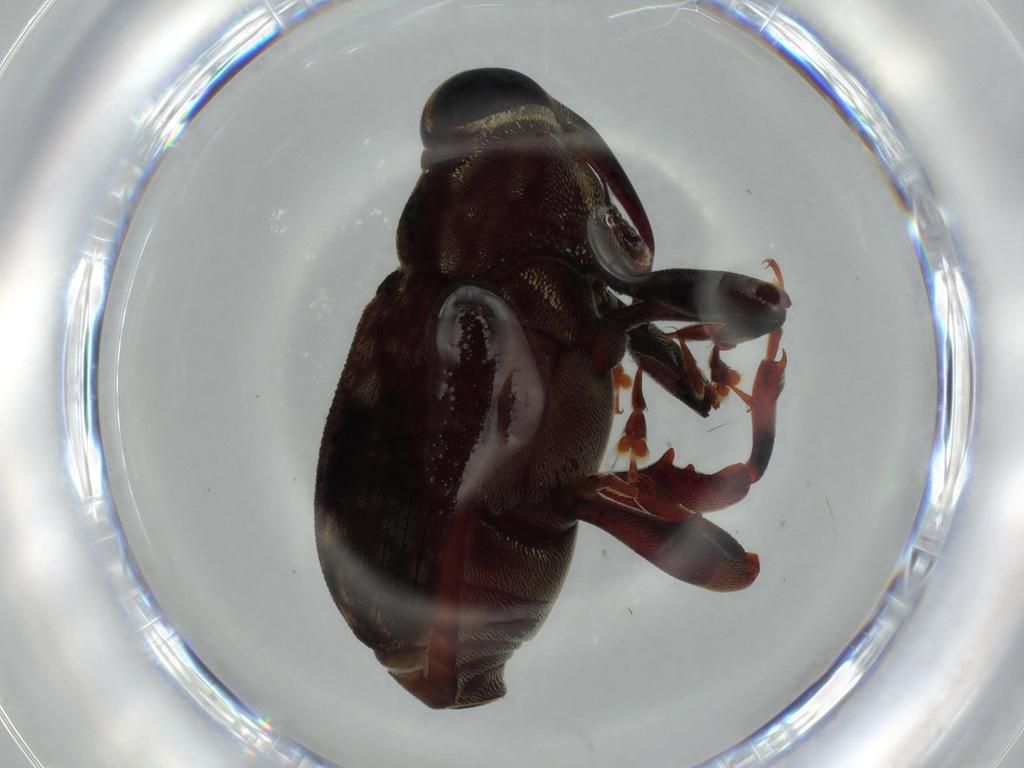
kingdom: Animalia
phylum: Arthropoda
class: Insecta
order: Coleoptera
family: Curculionidae
